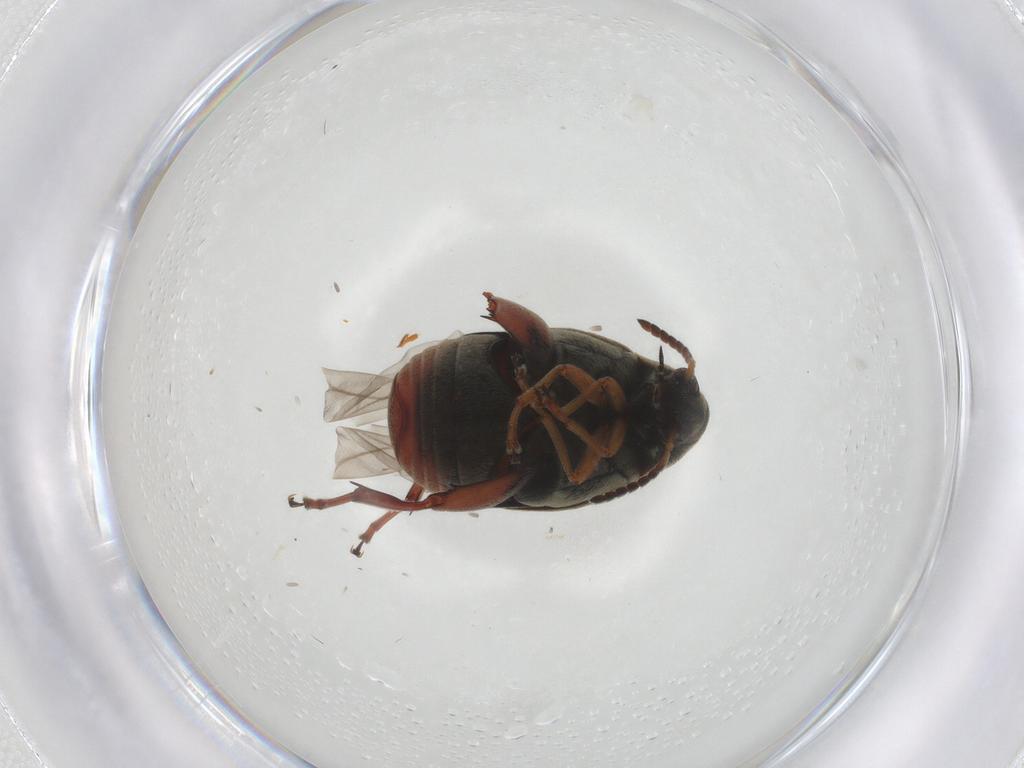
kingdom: Animalia
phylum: Arthropoda
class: Insecta
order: Coleoptera
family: Chrysomelidae
